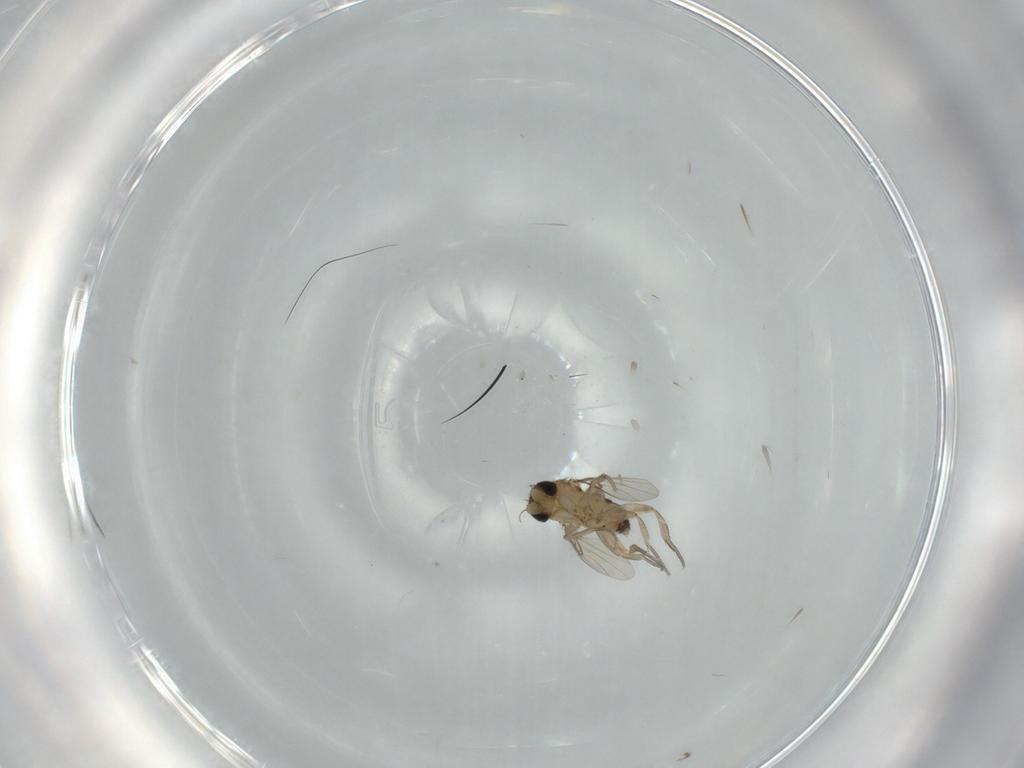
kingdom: Animalia
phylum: Arthropoda
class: Insecta
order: Diptera
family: Phoridae
